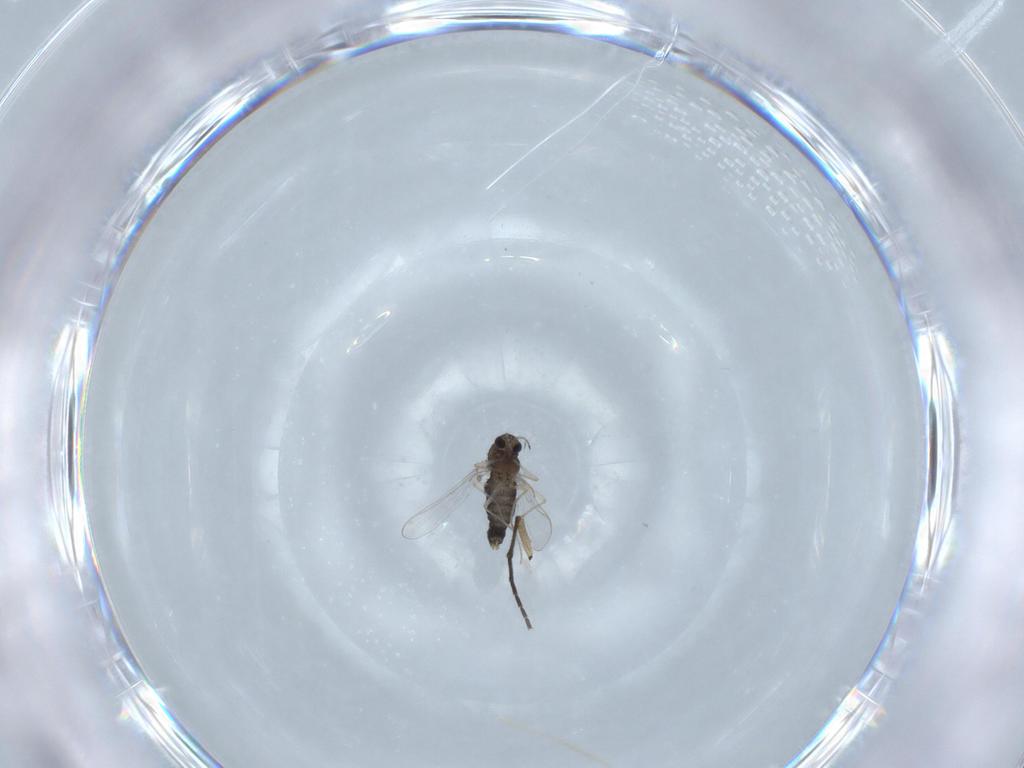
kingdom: Animalia
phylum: Arthropoda
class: Insecta
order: Diptera
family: Chironomidae
